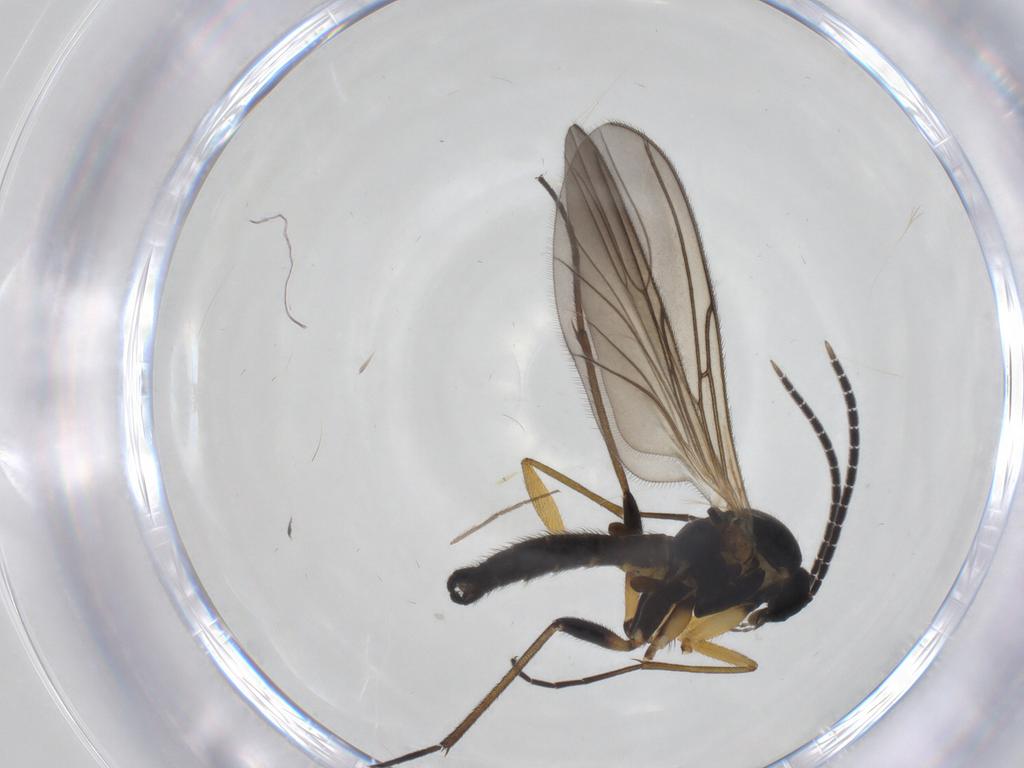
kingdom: Animalia
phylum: Arthropoda
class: Insecta
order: Diptera
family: Sciaridae
